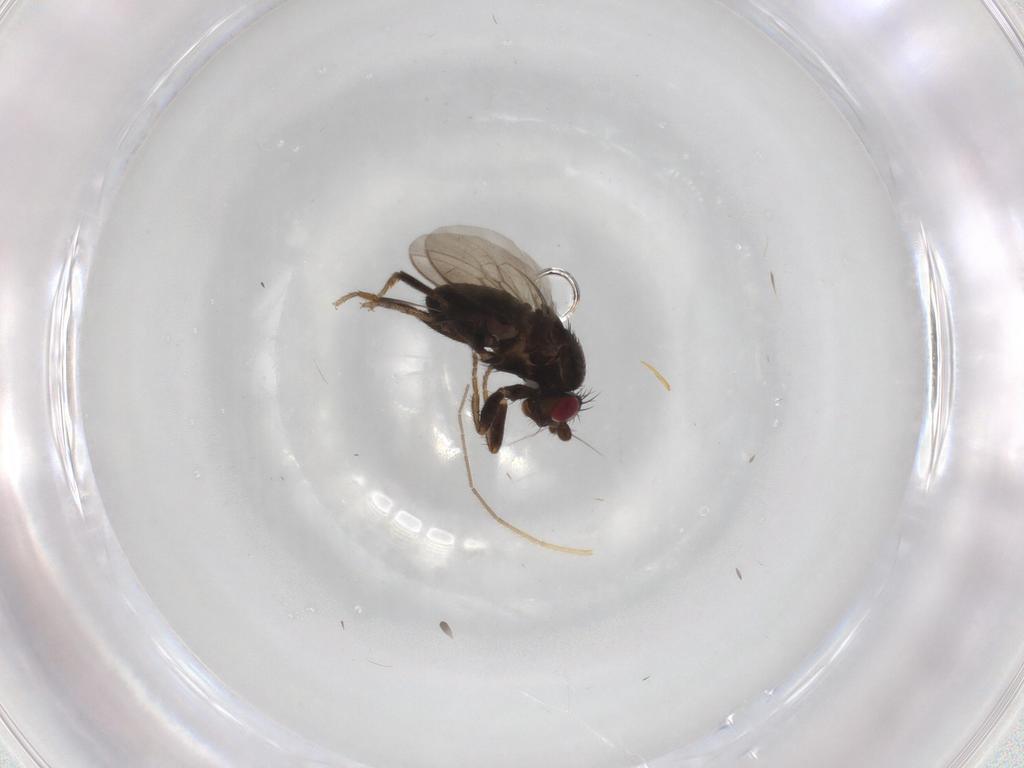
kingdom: Animalia
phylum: Arthropoda
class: Insecta
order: Diptera
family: Sphaeroceridae
